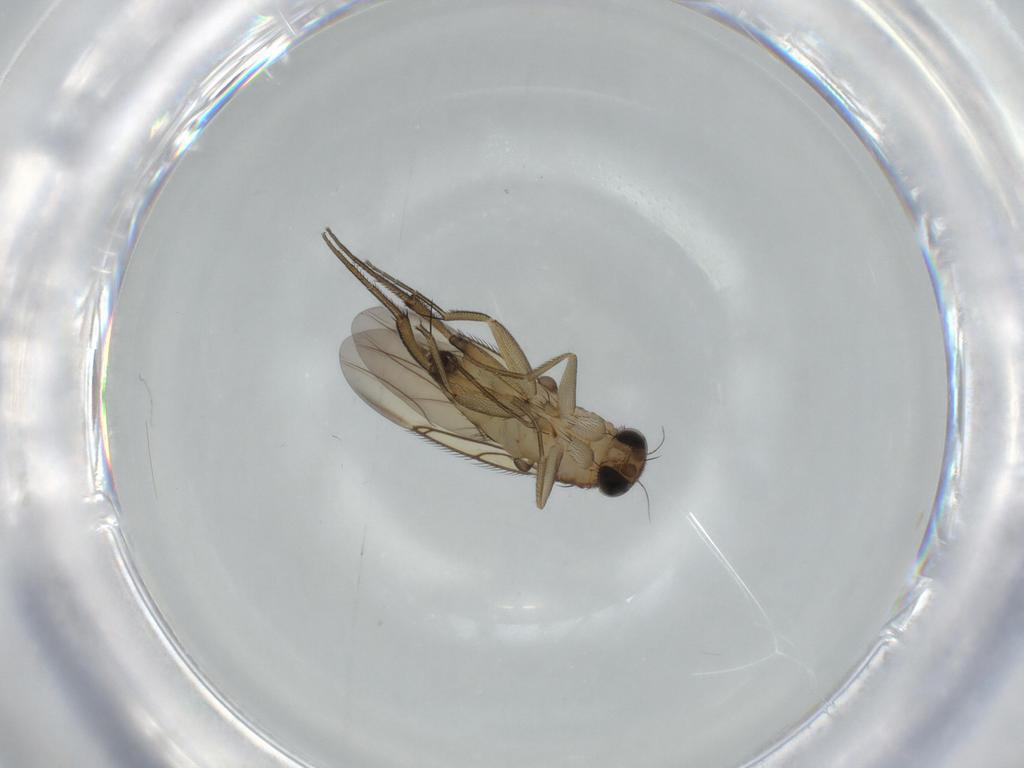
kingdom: Animalia
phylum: Arthropoda
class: Insecta
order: Diptera
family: Phoridae
